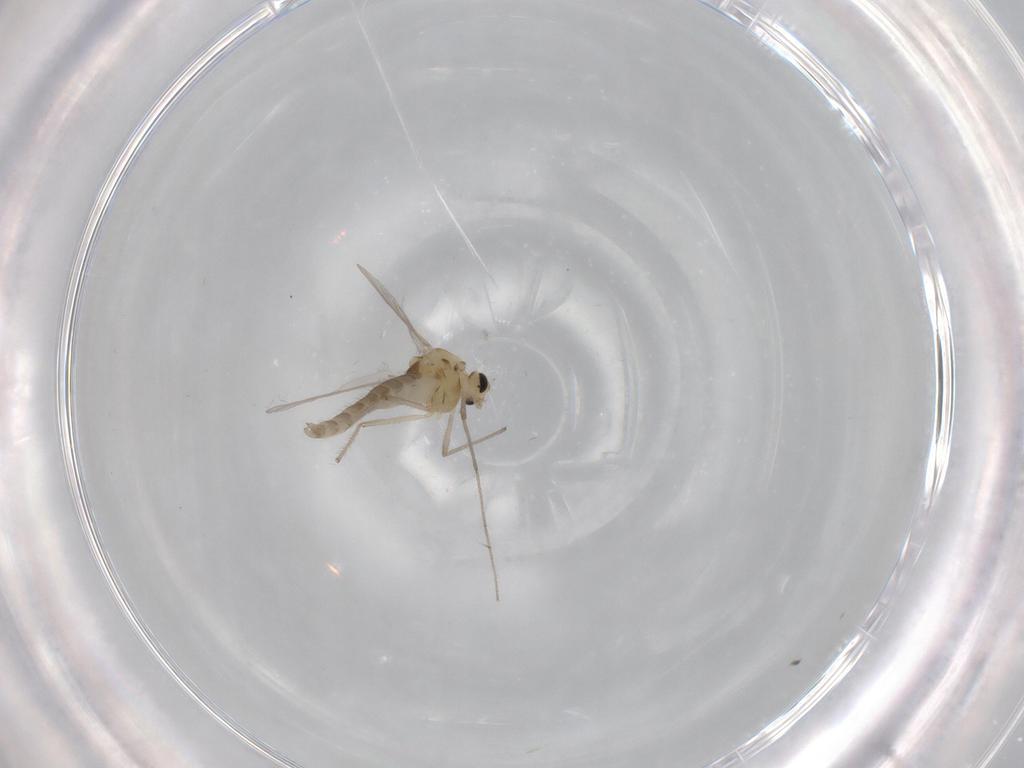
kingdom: Animalia
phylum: Arthropoda
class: Insecta
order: Diptera
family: Chironomidae
